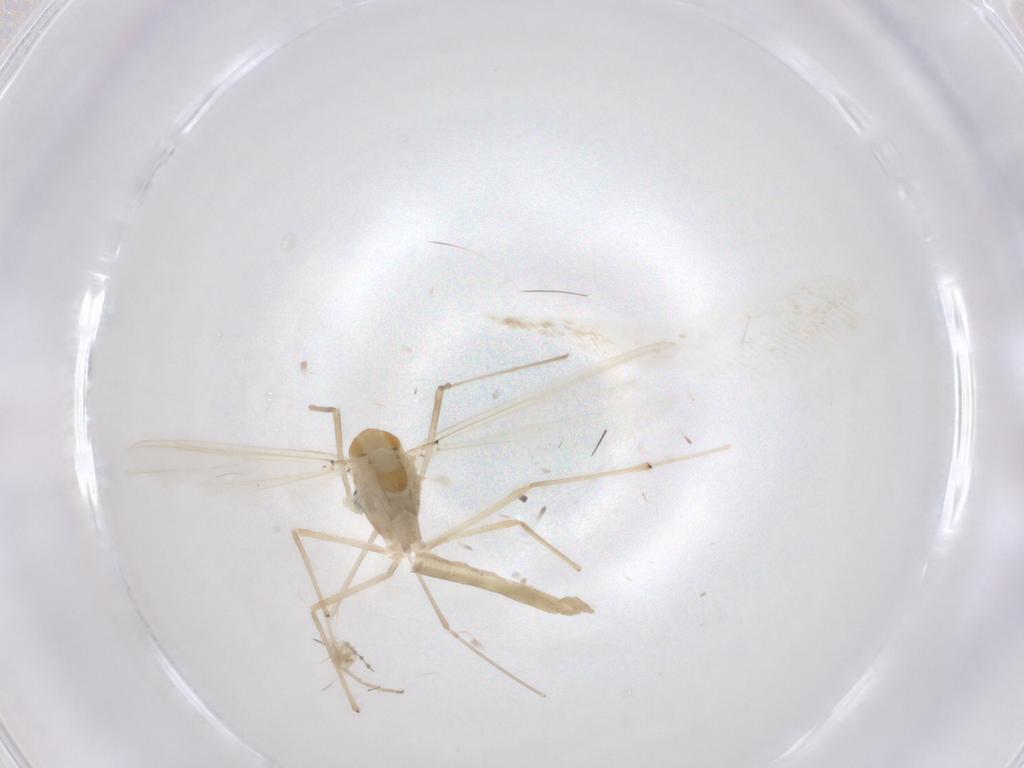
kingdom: Animalia
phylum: Arthropoda
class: Insecta
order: Diptera
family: Chironomidae
